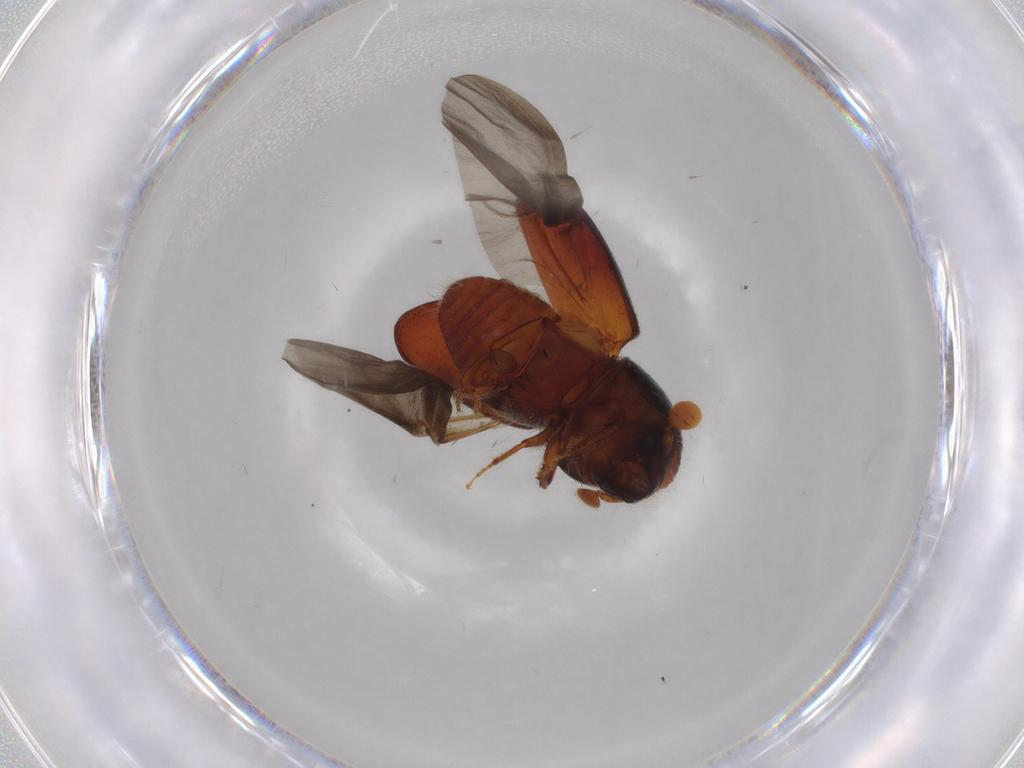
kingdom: Animalia
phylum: Arthropoda
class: Insecta
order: Coleoptera
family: Curculionidae
